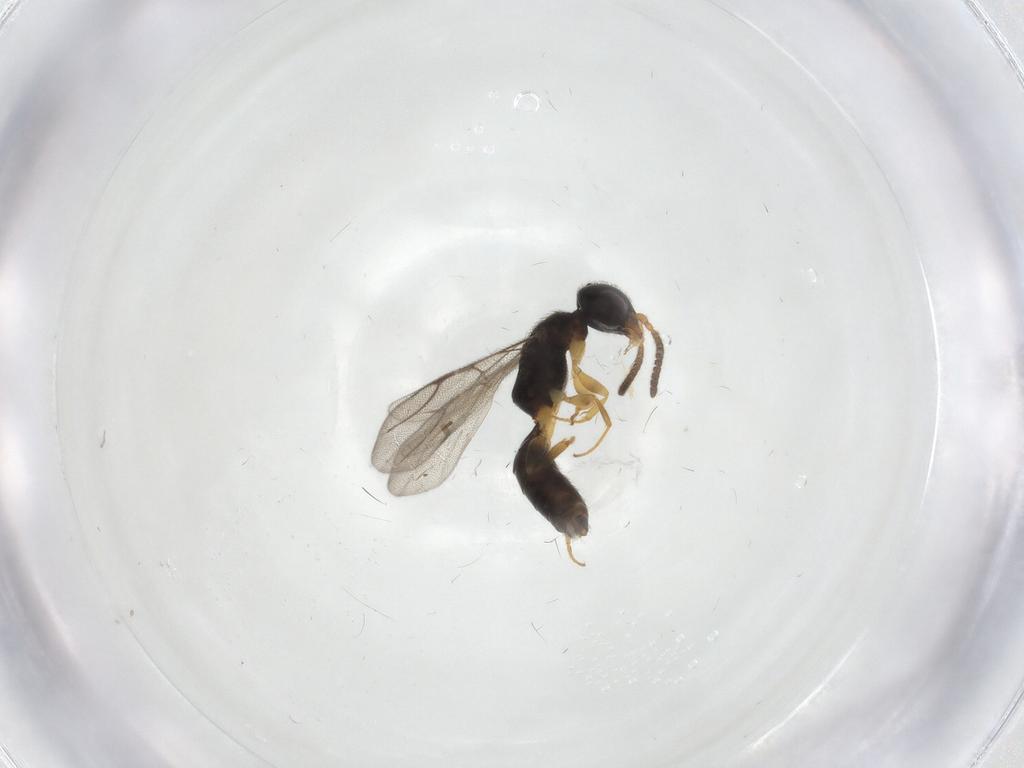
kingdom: Animalia
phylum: Arthropoda
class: Insecta
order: Hymenoptera
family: Bethylidae
